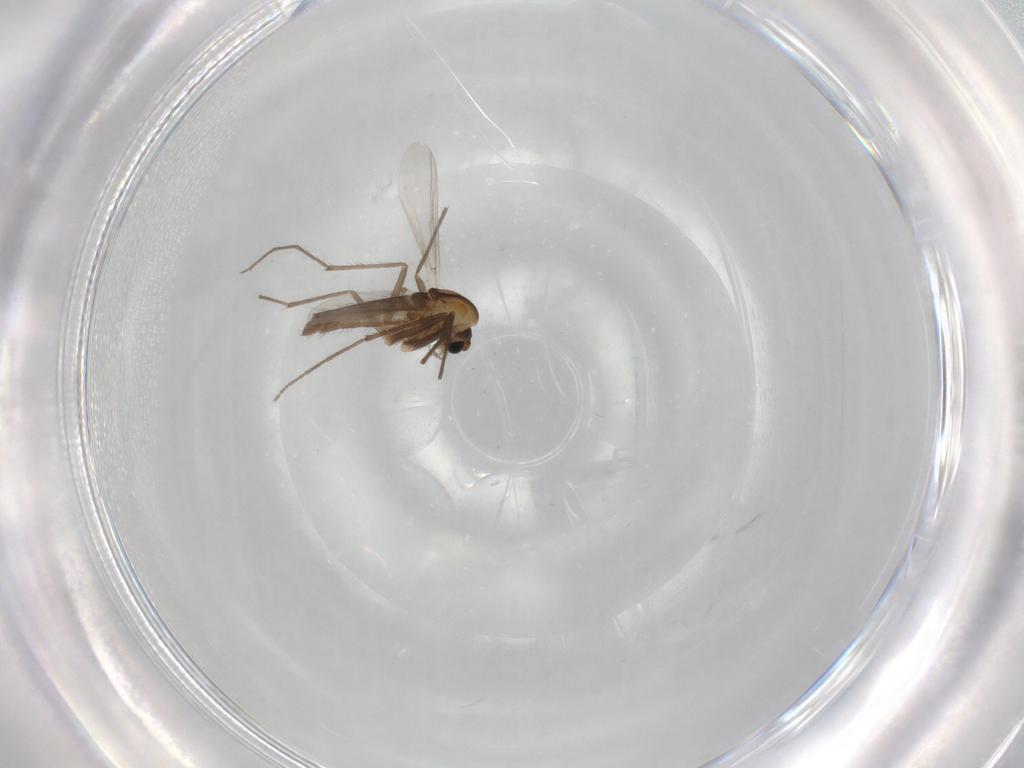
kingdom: Animalia
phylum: Arthropoda
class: Insecta
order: Diptera
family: Chironomidae
